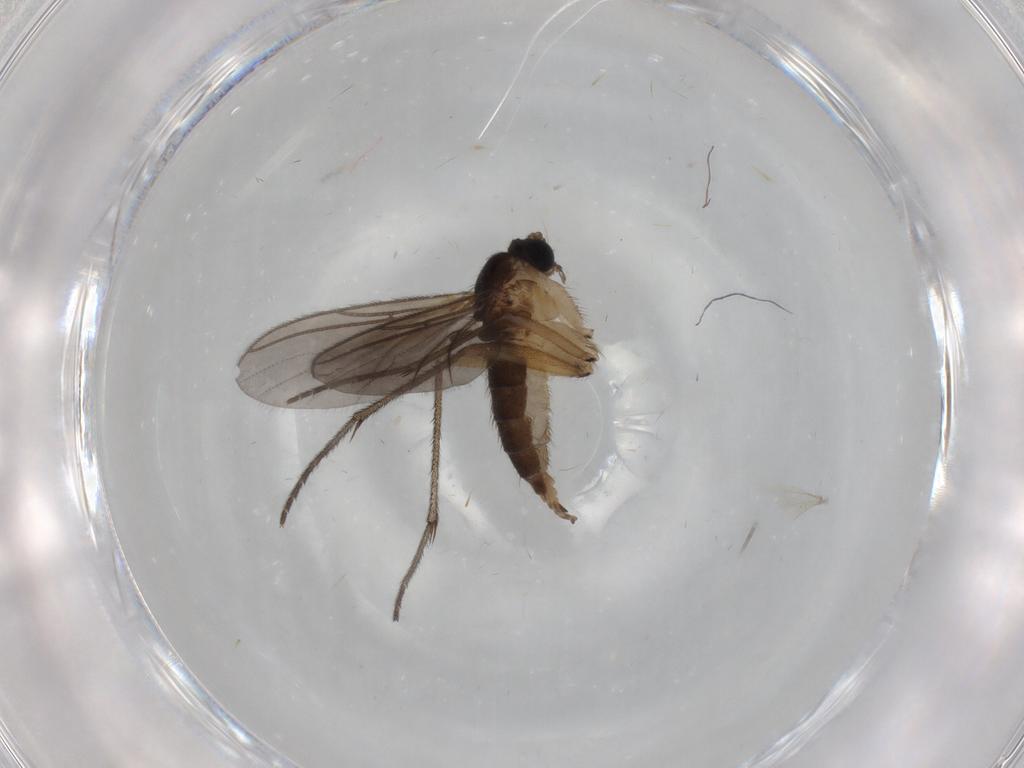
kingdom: Animalia
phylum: Arthropoda
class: Insecta
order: Diptera
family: Sciaridae
